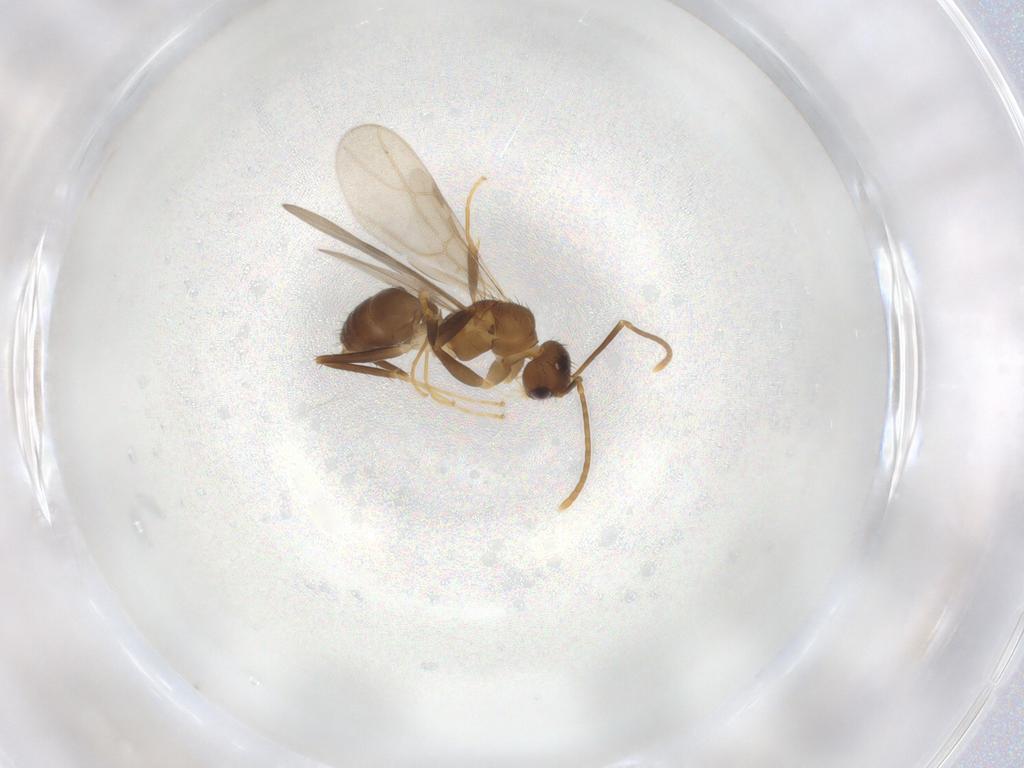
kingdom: Animalia
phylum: Arthropoda
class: Insecta
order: Hymenoptera
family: Formicidae
